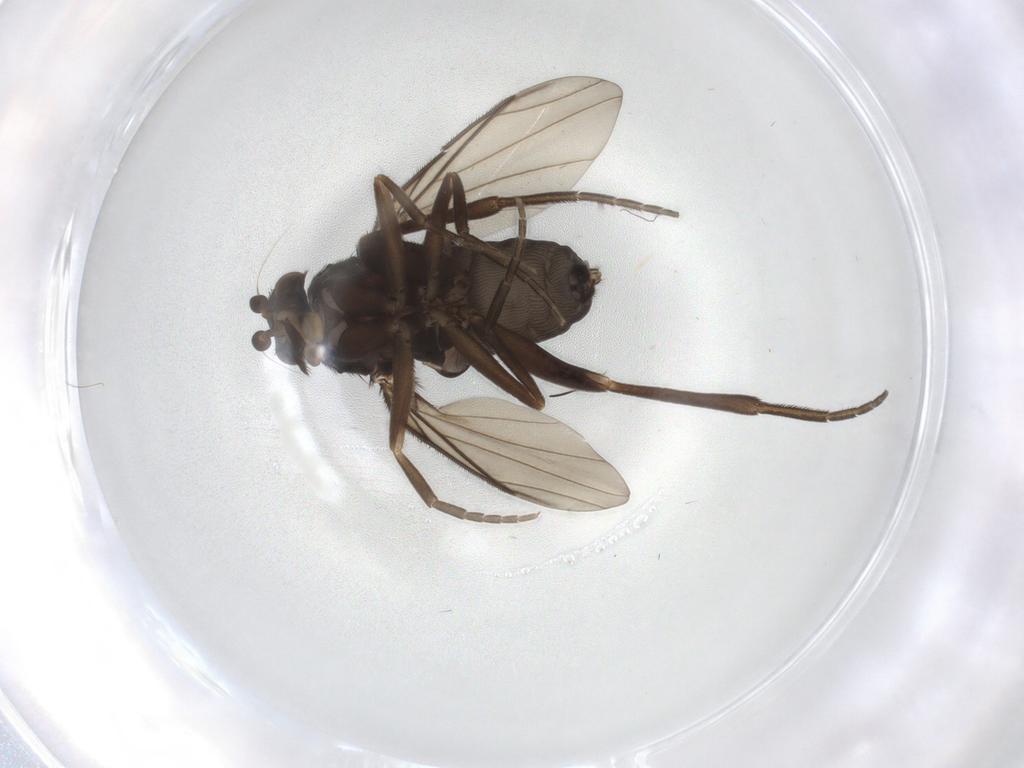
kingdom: Animalia
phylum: Arthropoda
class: Insecta
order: Diptera
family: Phoridae
